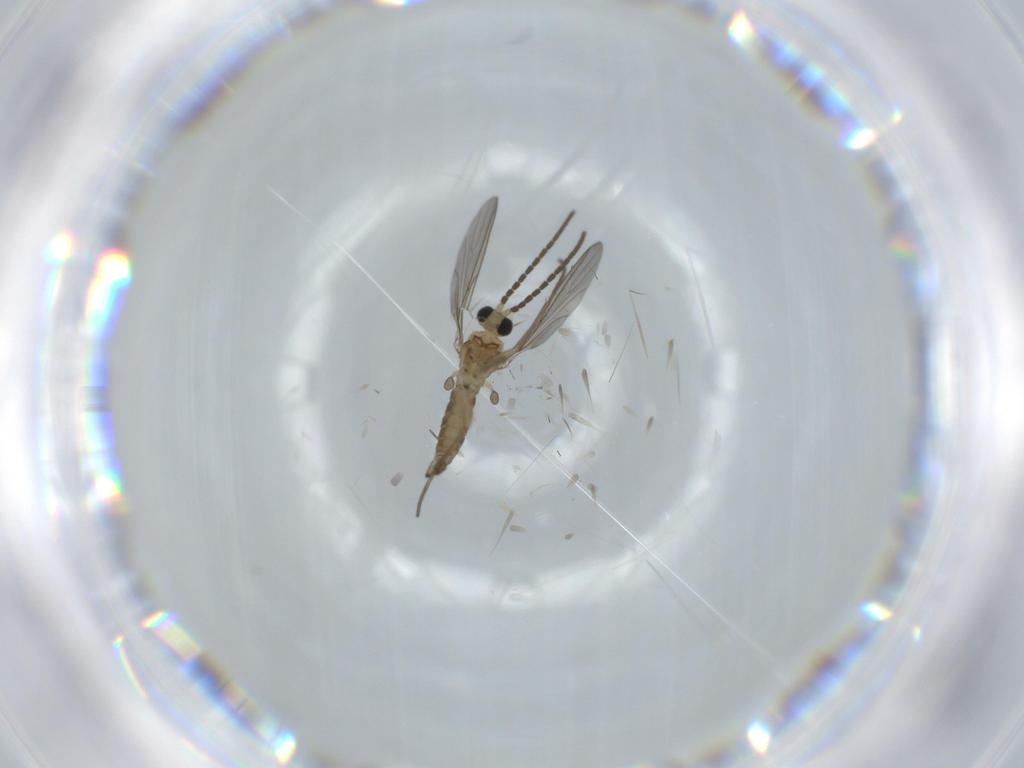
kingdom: Animalia
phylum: Arthropoda
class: Insecta
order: Diptera
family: Sciaridae
